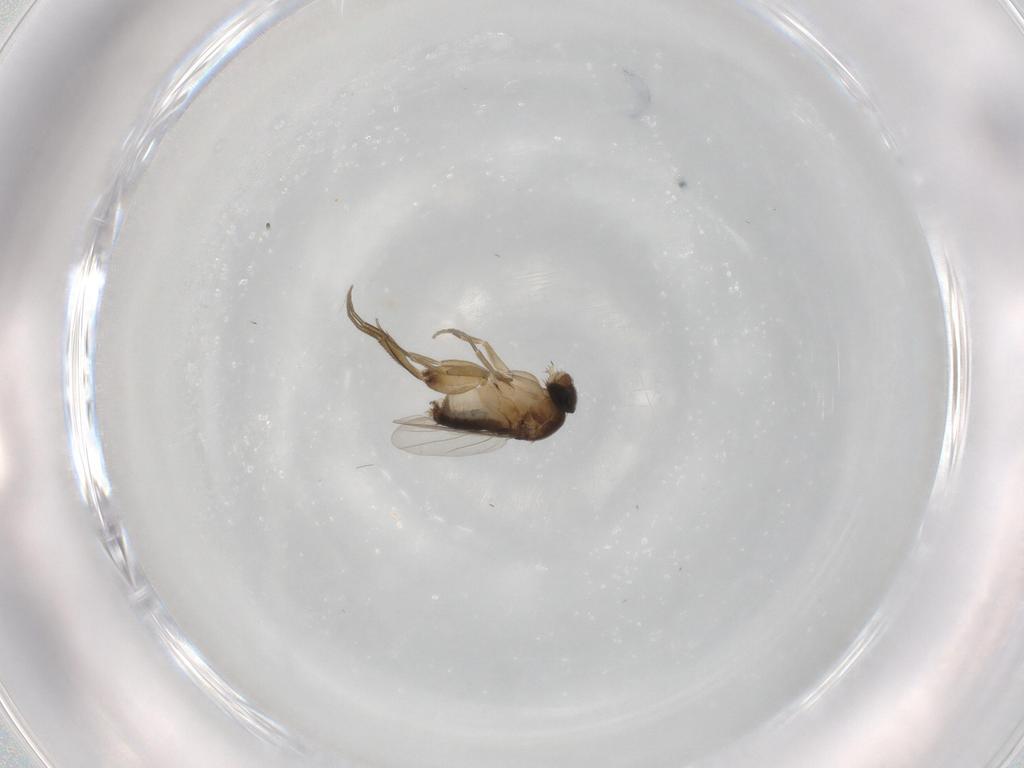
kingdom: Animalia
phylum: Arthropoda
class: Insecta
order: Diptera
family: Phoridae
